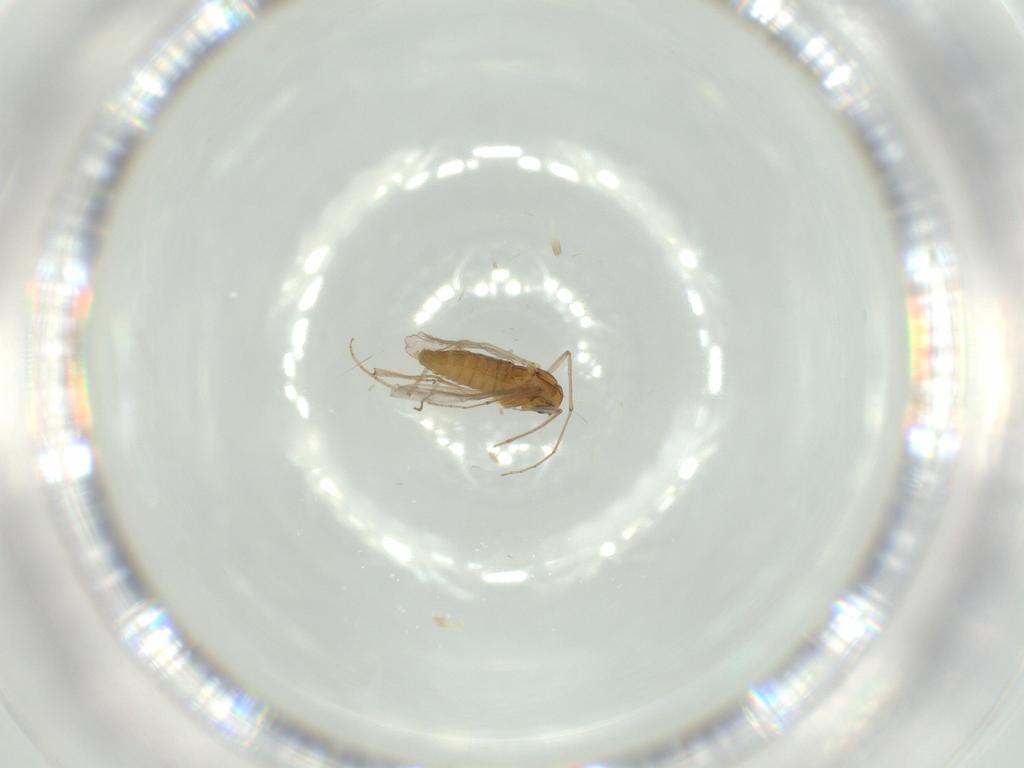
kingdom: Animalia
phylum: Arthropoda
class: Insecta
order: Diptera
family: Chironomidae
